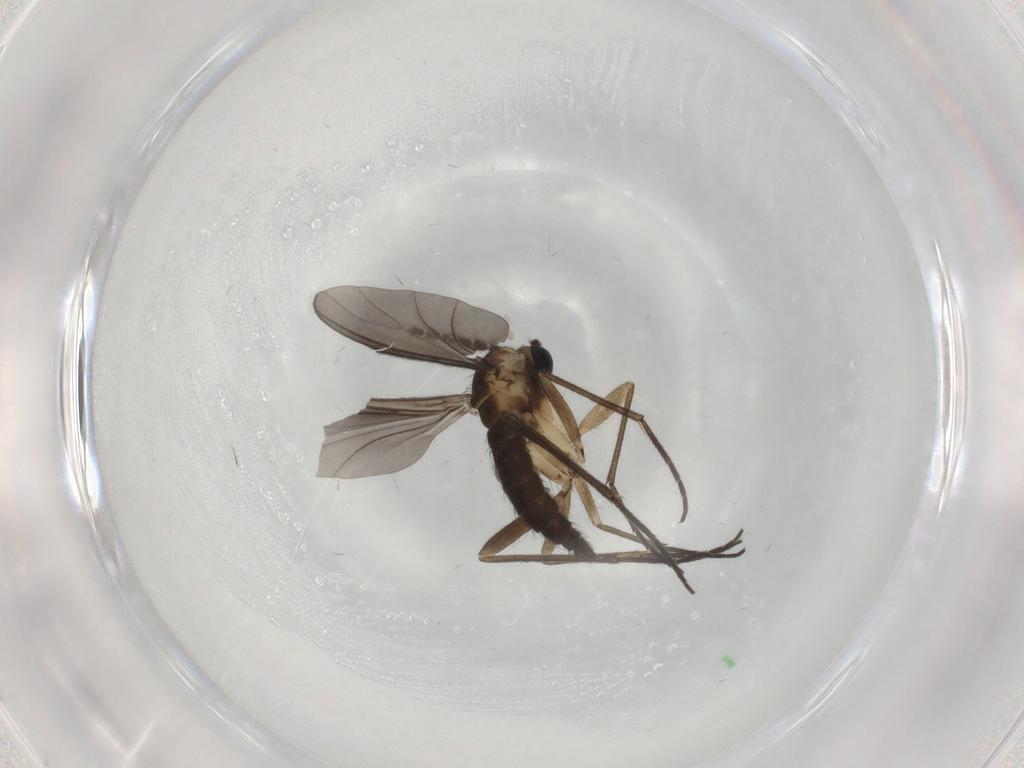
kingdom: Animalia
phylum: Arthropoda
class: Insecta
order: Diptera
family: Sciaridae
